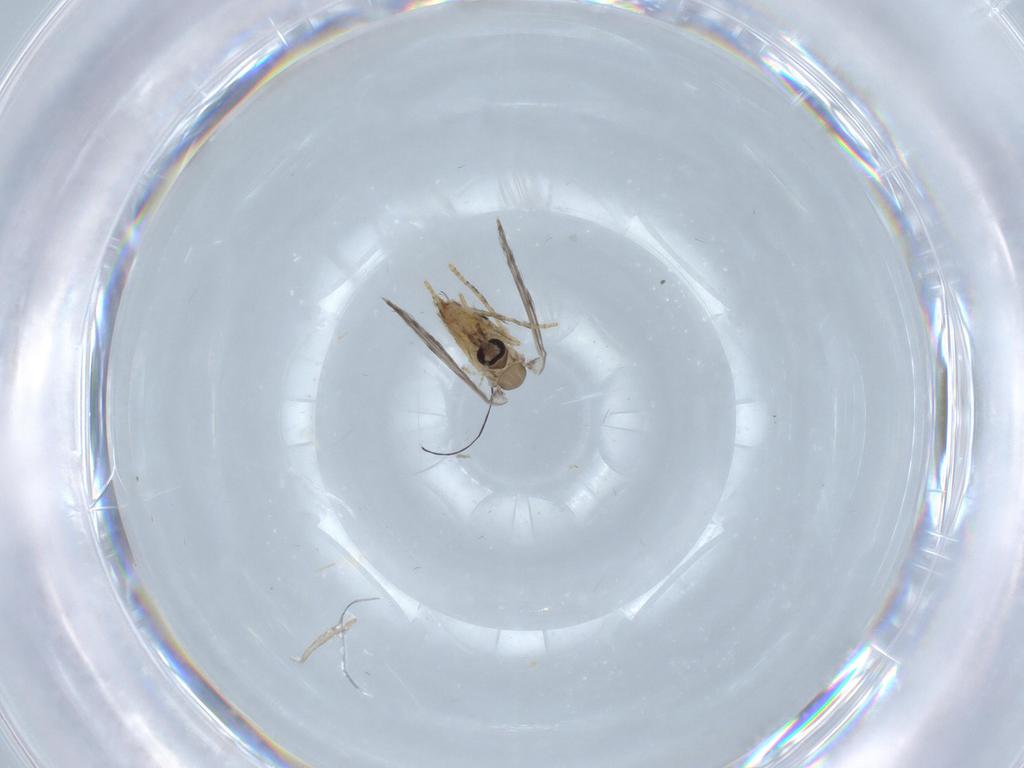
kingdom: Animalia
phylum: Arthropoda
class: Insecta
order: Diptera
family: Psychodidae
